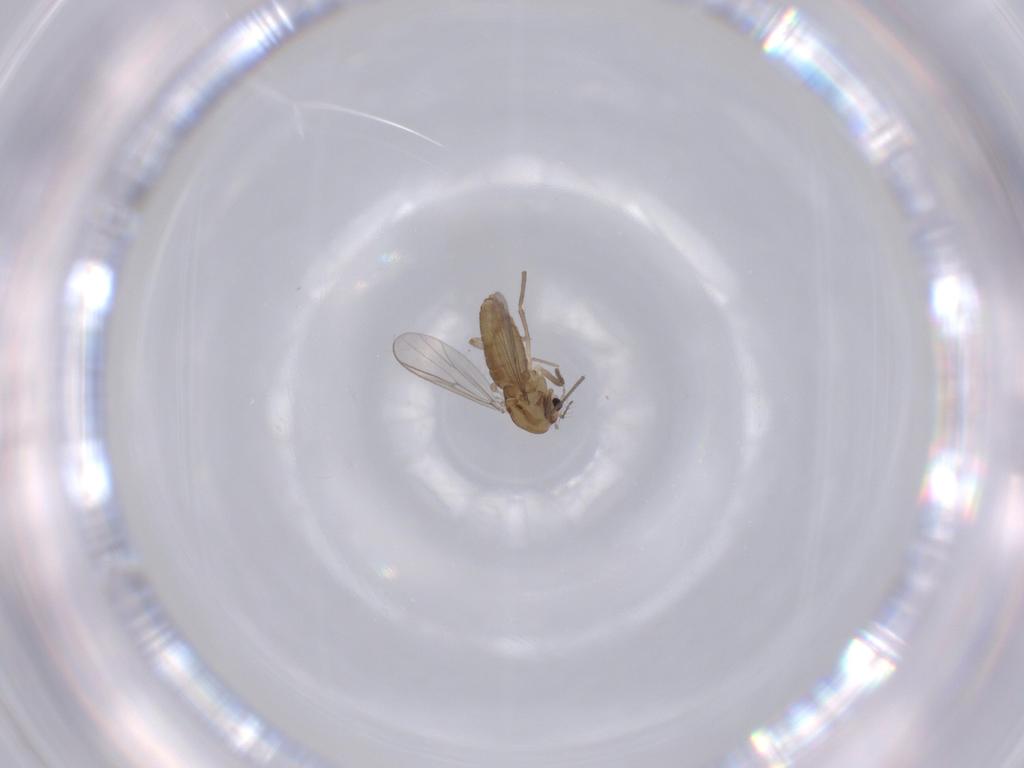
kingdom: Animalia
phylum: Arthropoda
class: Insecta
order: Diptera
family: Chironomidae
